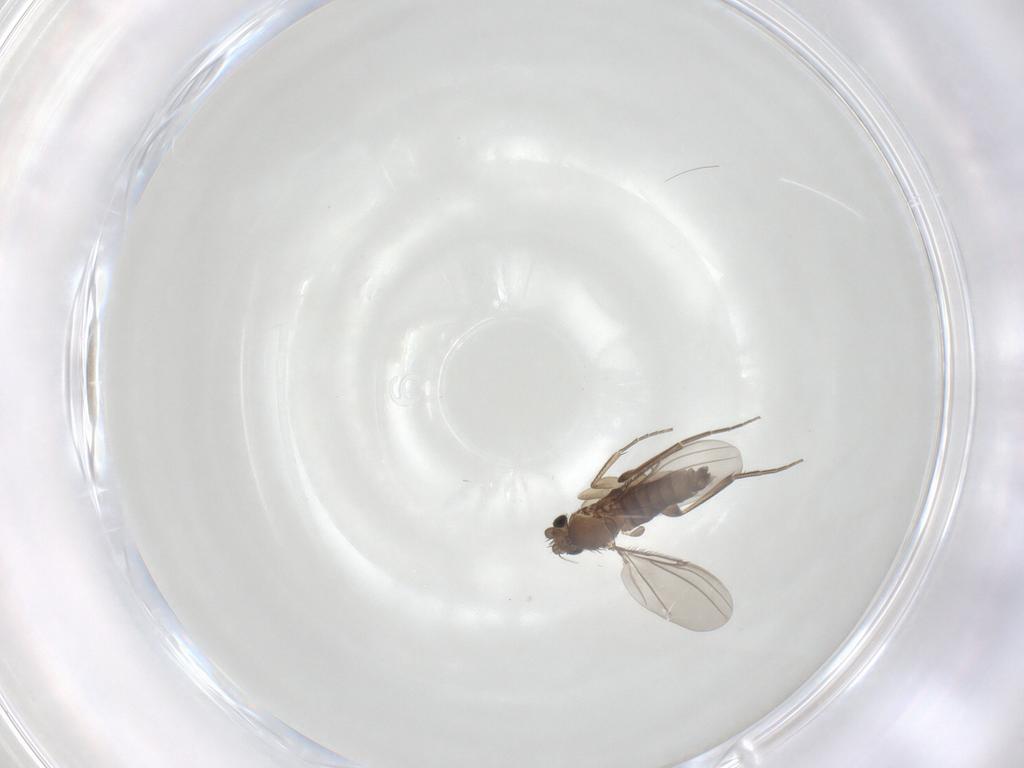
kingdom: Animalia
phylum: Arthropoda
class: Insecta
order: Diptera
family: Phoridae
